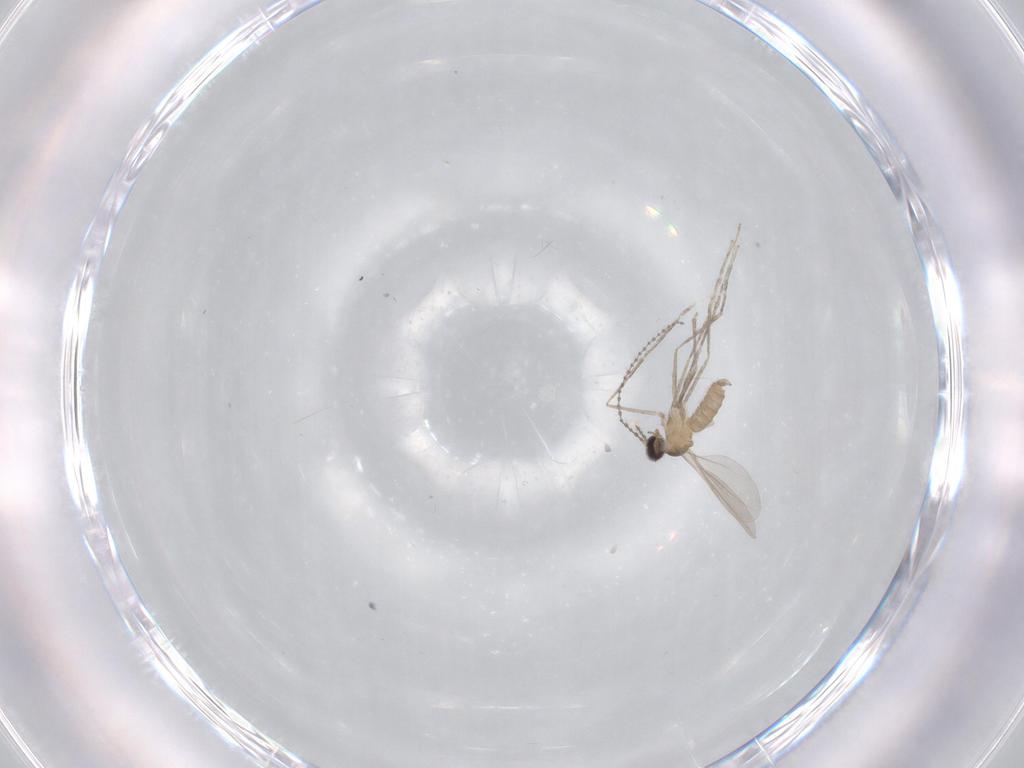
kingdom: Animalia
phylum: Arthropoda
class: Insecta
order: Diptera
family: Cecidomyiidae
